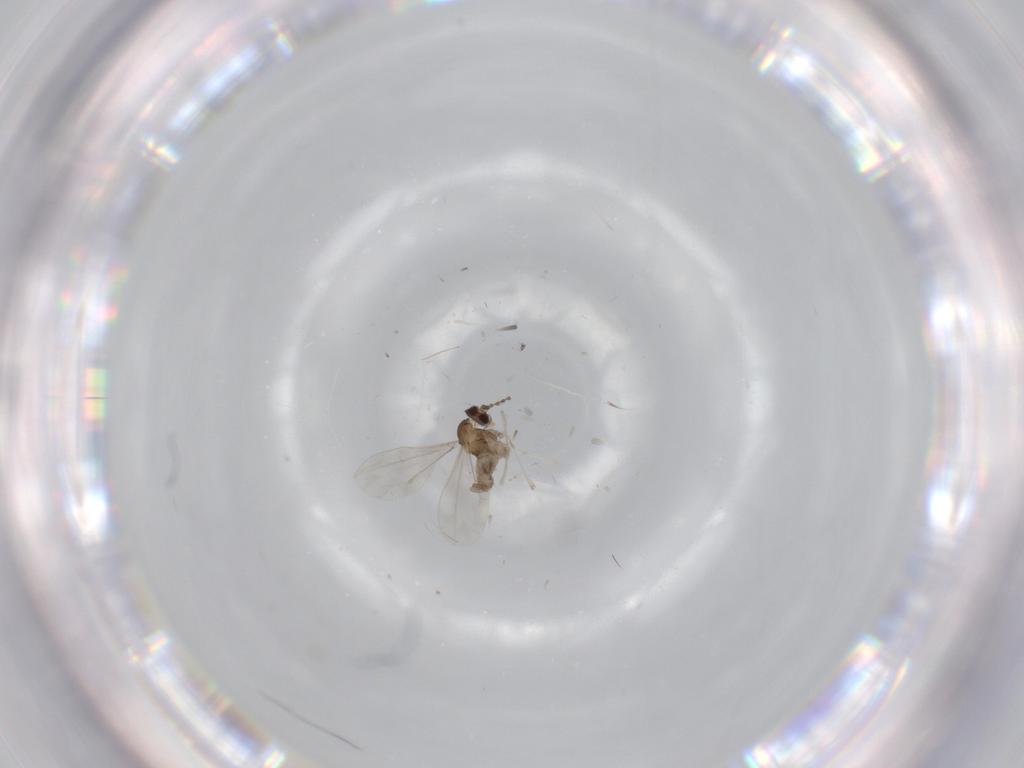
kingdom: Animalia
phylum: Arthropoda
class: Insecta
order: Diptera
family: Cecidomyiidae
